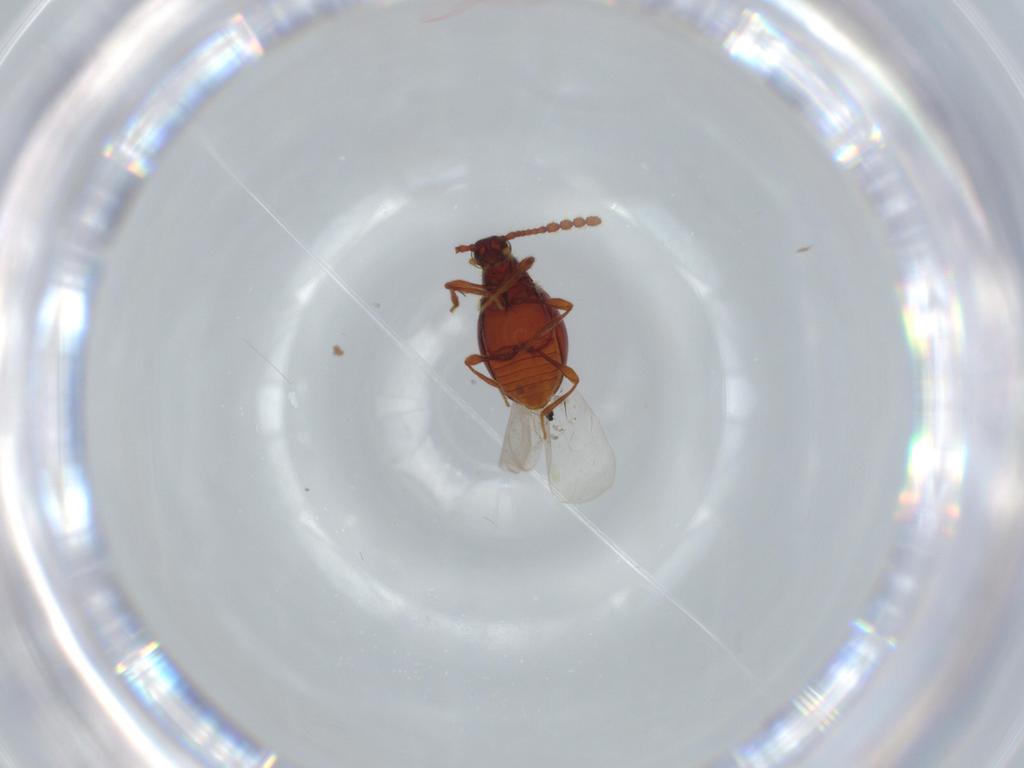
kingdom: Animalia
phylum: Arthropoda
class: Insecta
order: Coleoptera
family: Staphylinidae
